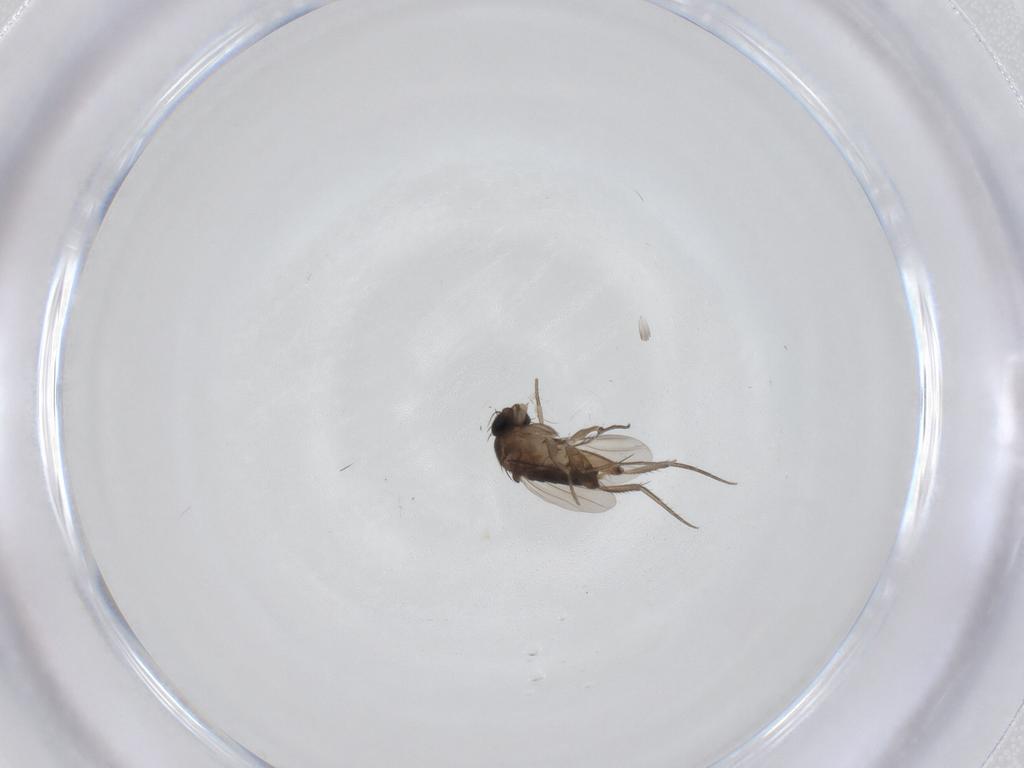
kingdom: Animalia
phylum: Arthropoda
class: Insecta
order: Diptera
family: Phoridae
